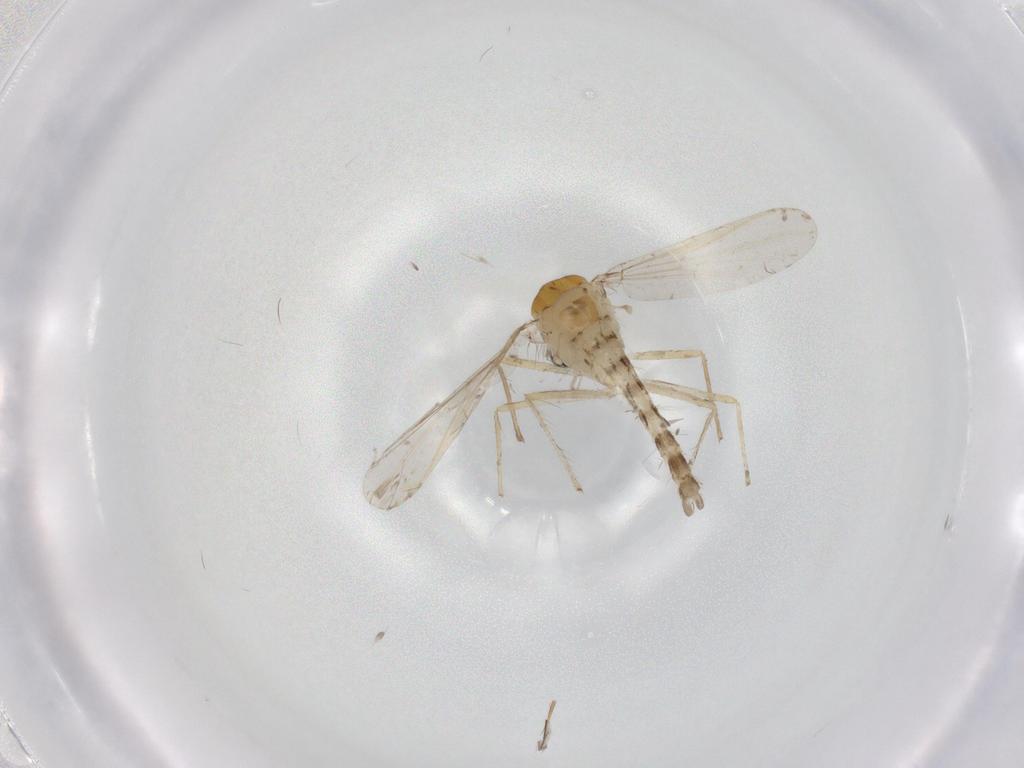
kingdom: Animalia
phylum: Arthropoda
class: Insecta
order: Diptera
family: Chironomidae
